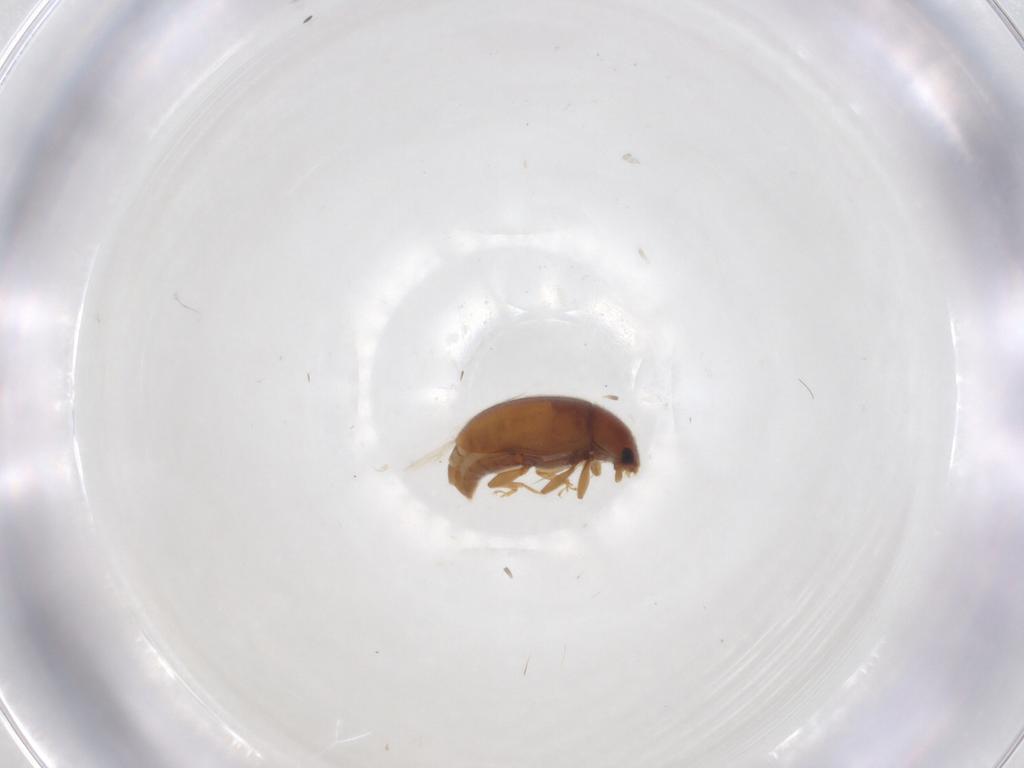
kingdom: Animalia
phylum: Arthropoda
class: Insecta
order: Coleoptera
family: Coccinellidae
